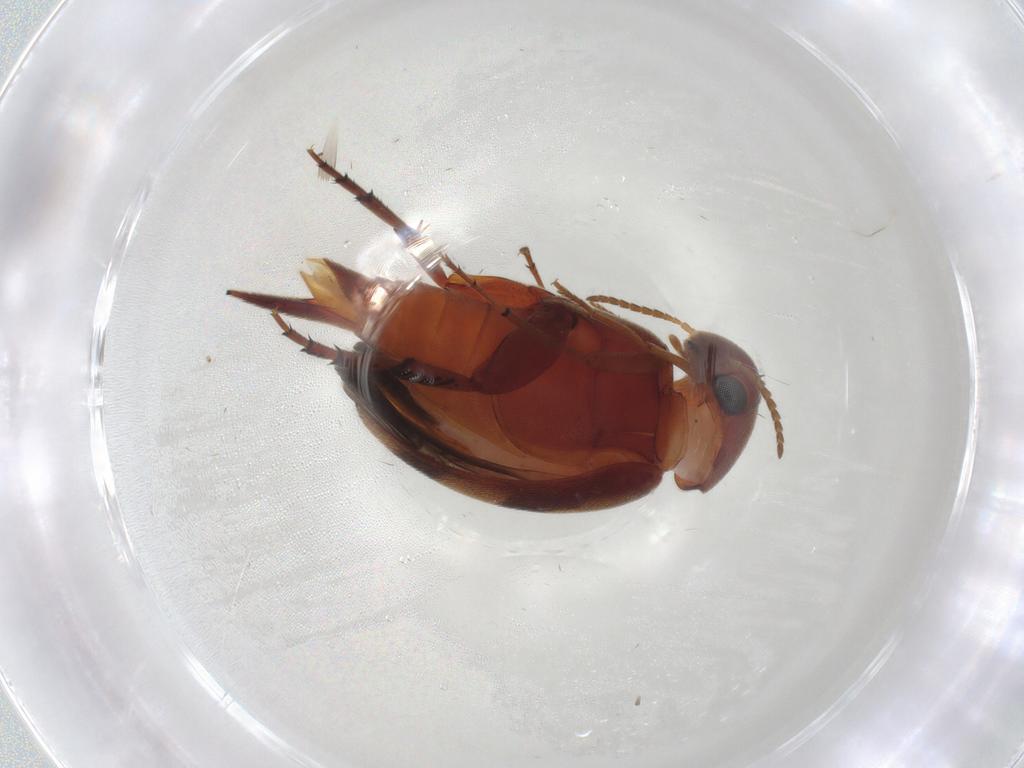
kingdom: Animalia
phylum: Arthropoda
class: Insecta
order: Coleoptera
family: Mordellidae
